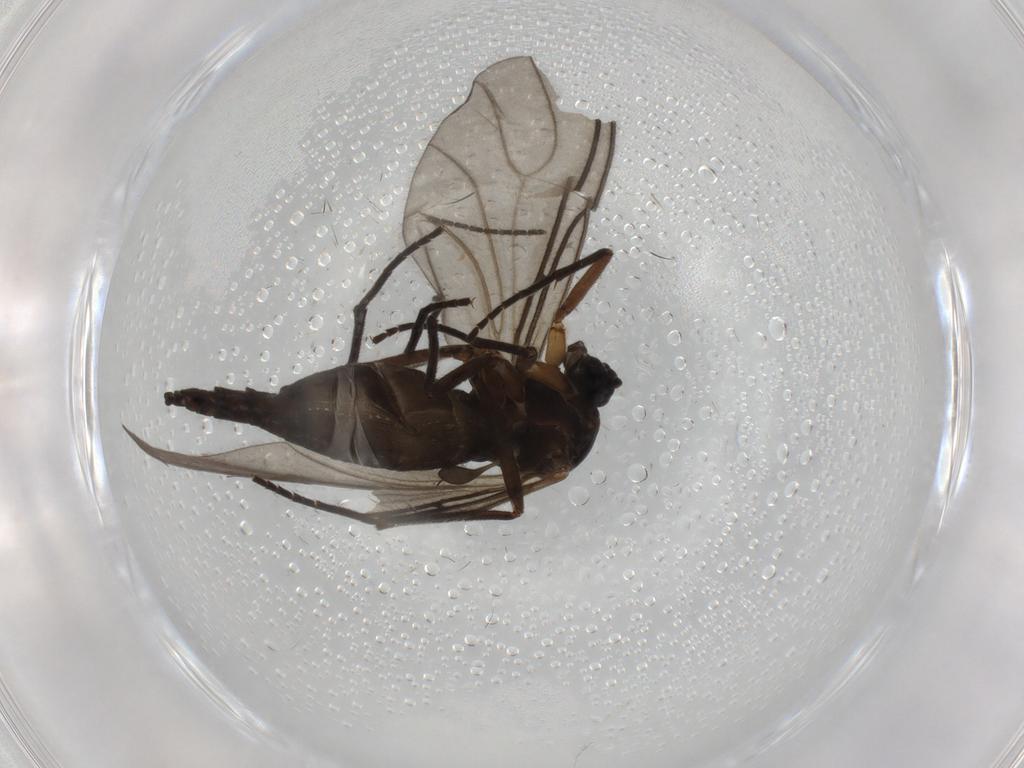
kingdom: Animalia
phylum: Arthropoda
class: Insecta
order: Diptera
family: Sciaridae
